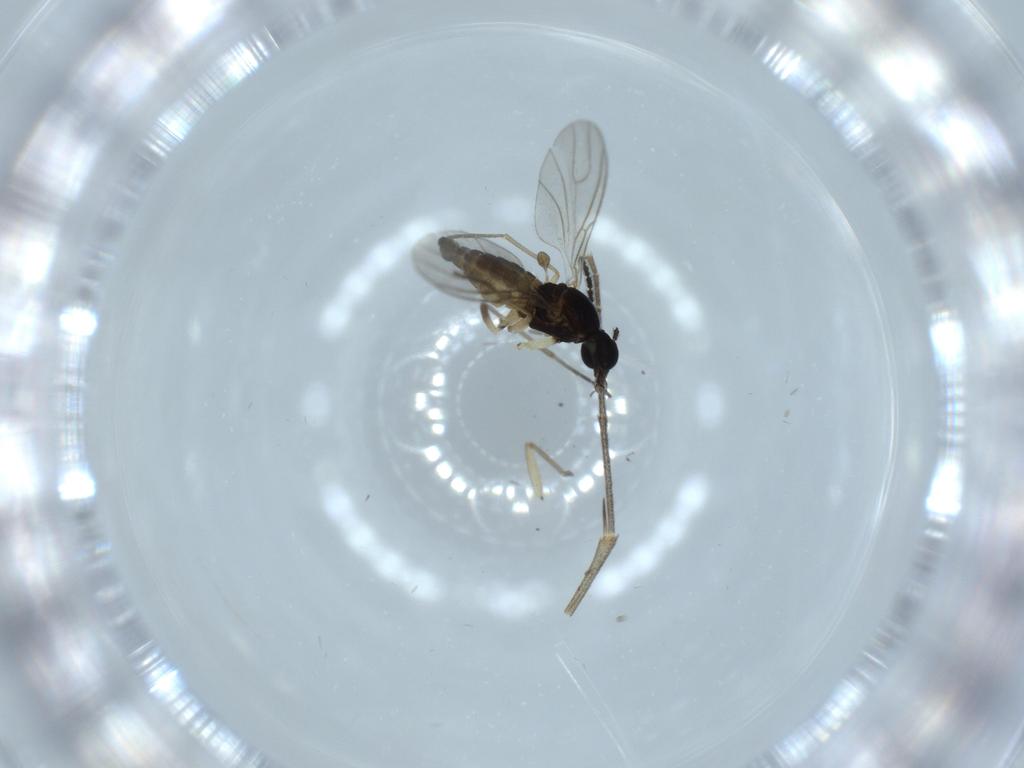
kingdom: Animalia
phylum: Arthropoda
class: Insecta
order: Diptera
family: Sciaridae
